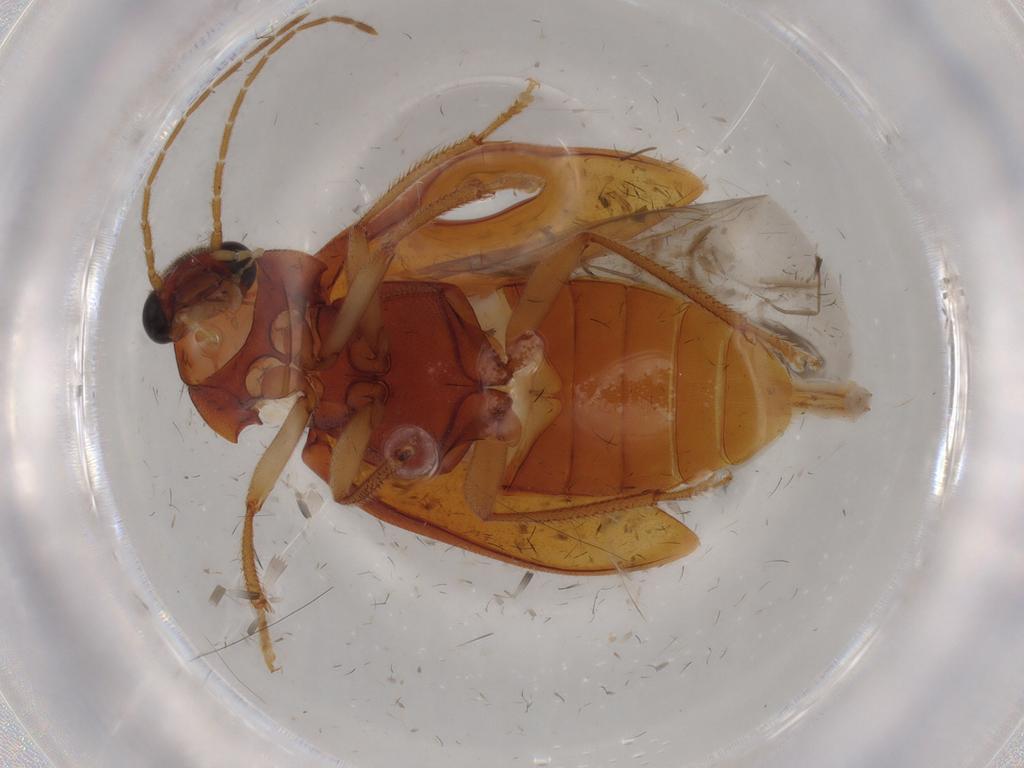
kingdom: Animalia
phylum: Arthropoda
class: Insecta
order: Coleoptera
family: Ptilodactylidae
